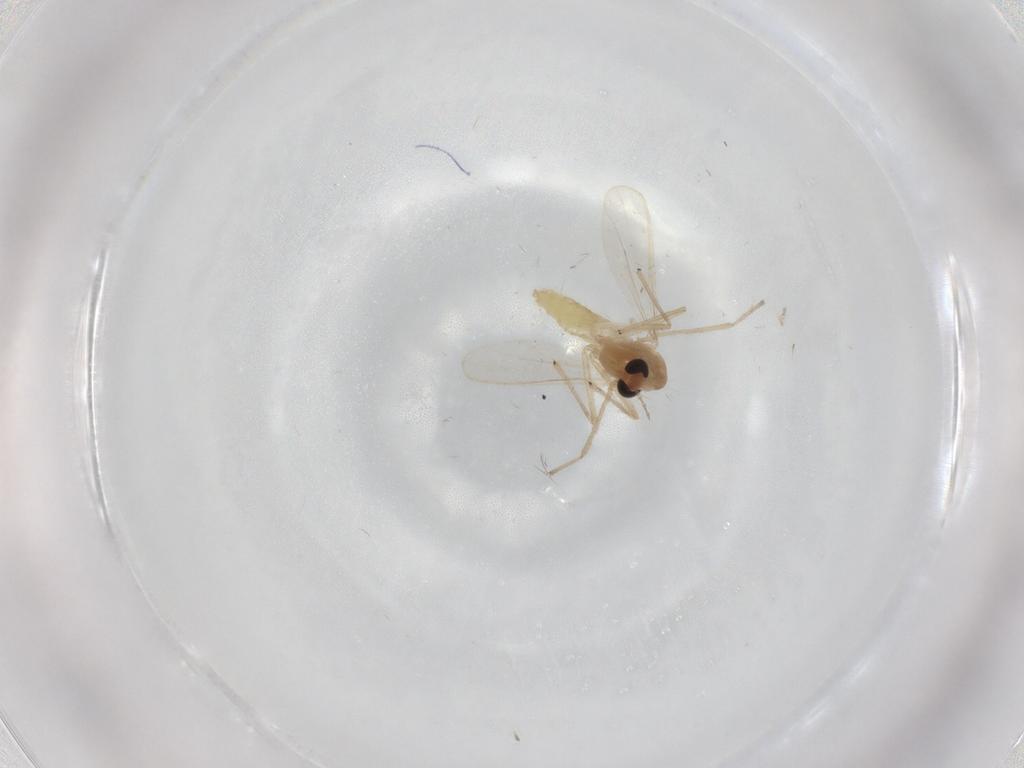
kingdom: Animalia
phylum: Arthropoda
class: Insecta
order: Diptera
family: Chironomidae
